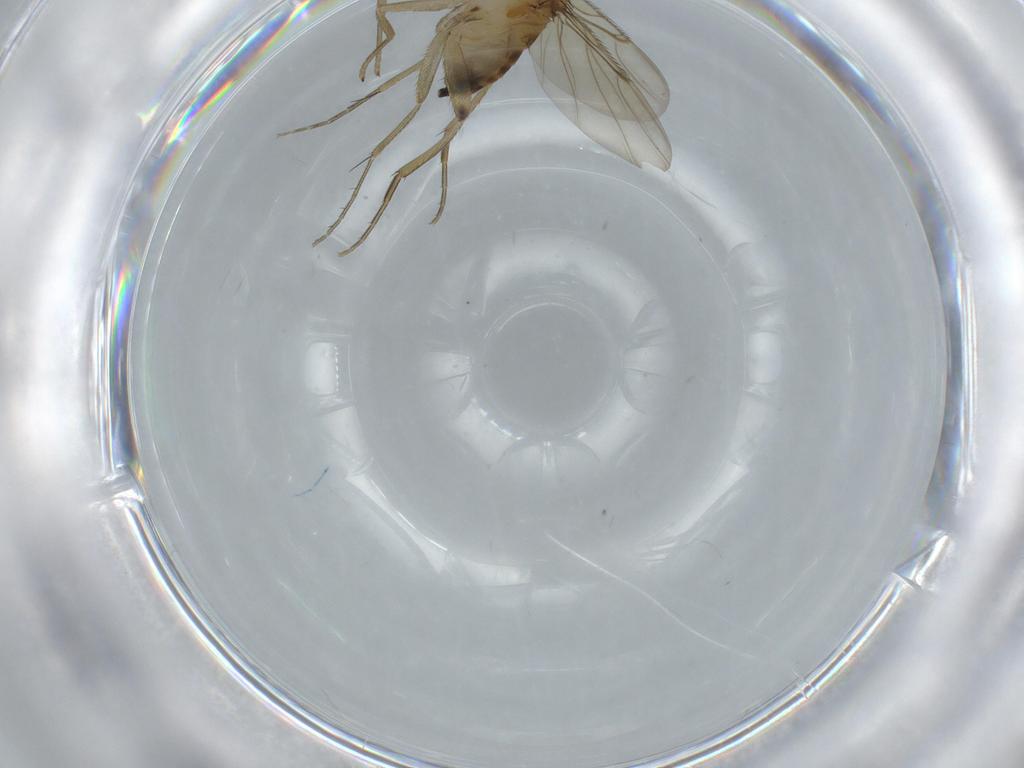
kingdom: Animalia
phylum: Arthropoda
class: Insecta
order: Diptera
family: Phoridae
